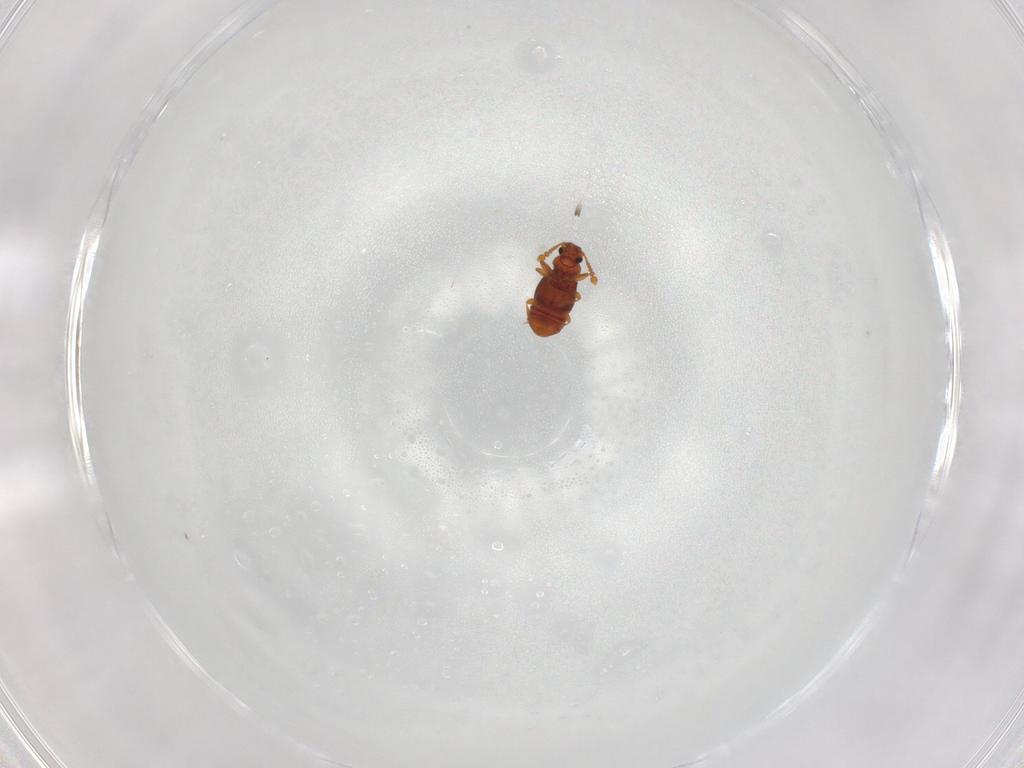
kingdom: Animalia
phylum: Arthropoda
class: Insecta
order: Coleoptera
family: Staphylinidae
